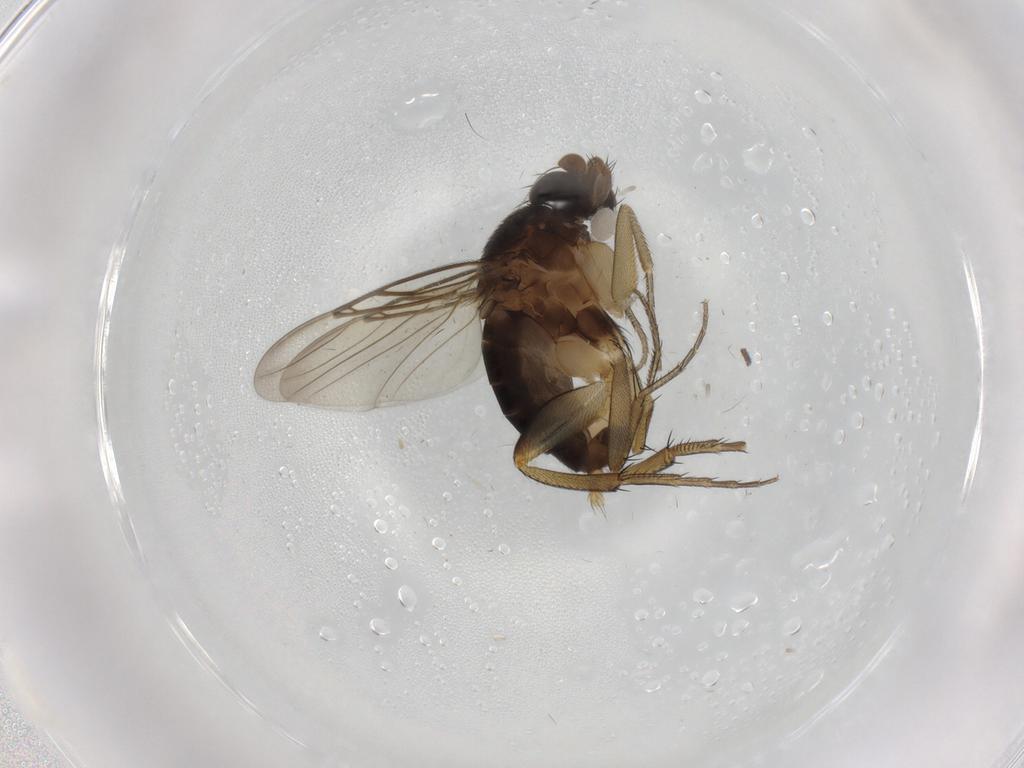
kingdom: Animalia
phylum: Arthropoda
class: Insecta
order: Diptera
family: Phoridae
